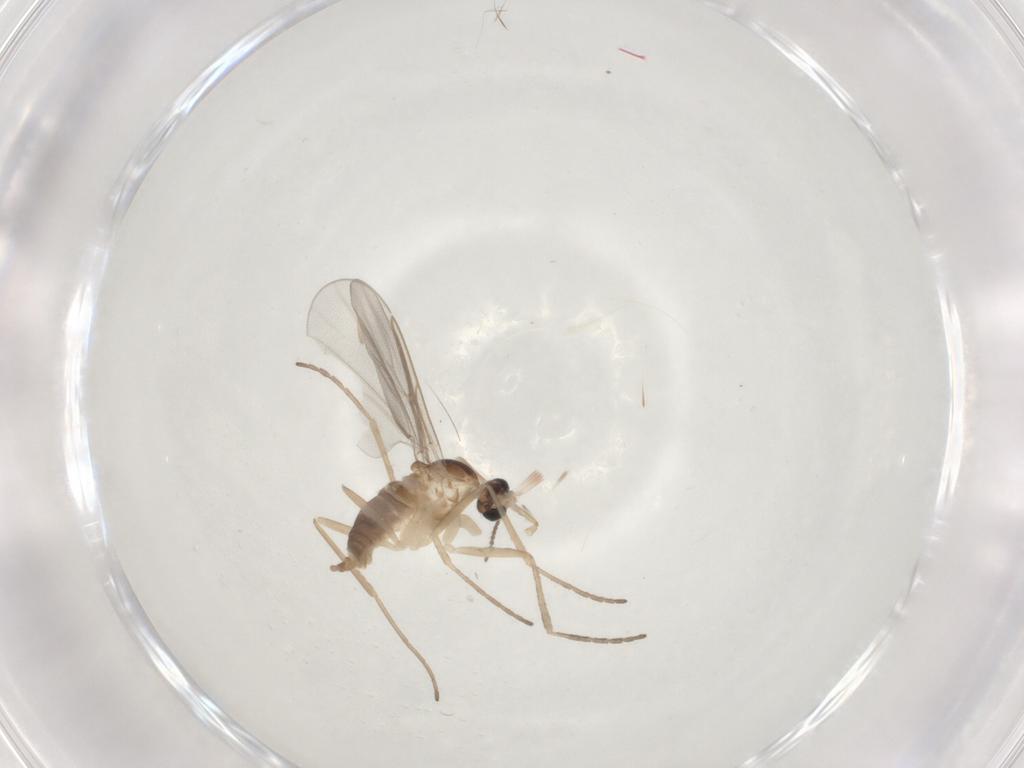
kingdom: Animalia
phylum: Arthropoda
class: Insecta
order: Diptera
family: Cecidomyiidae
